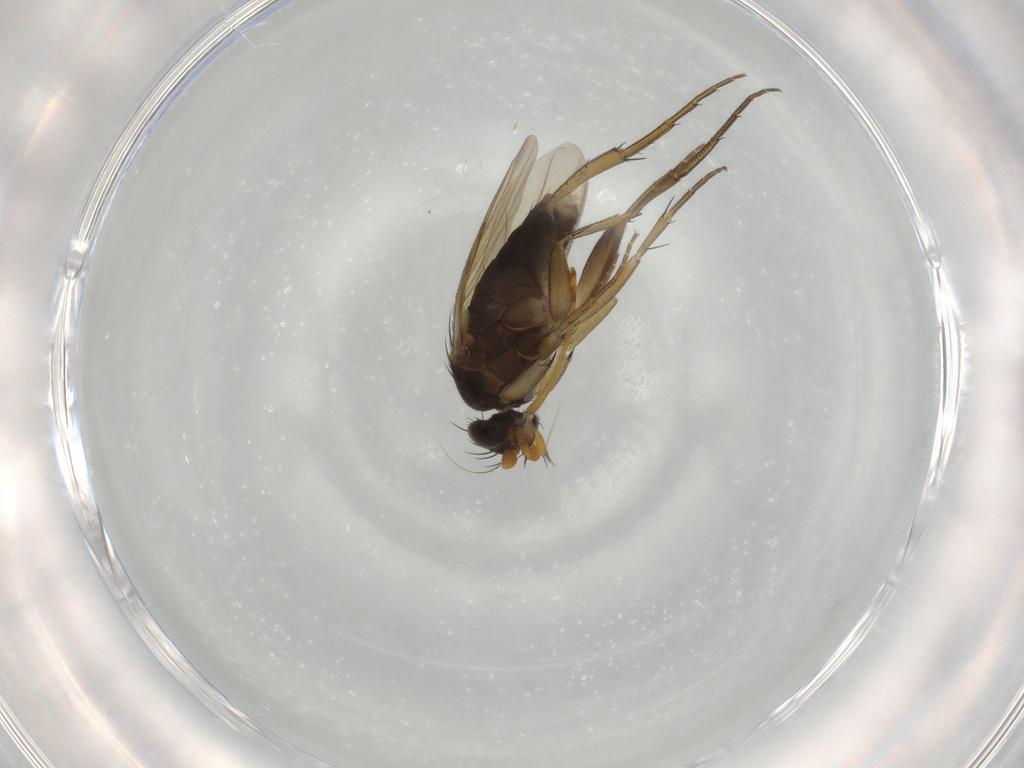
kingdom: Animalia
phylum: Arthropoda
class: Insecta
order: Diptera
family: Phoridae
